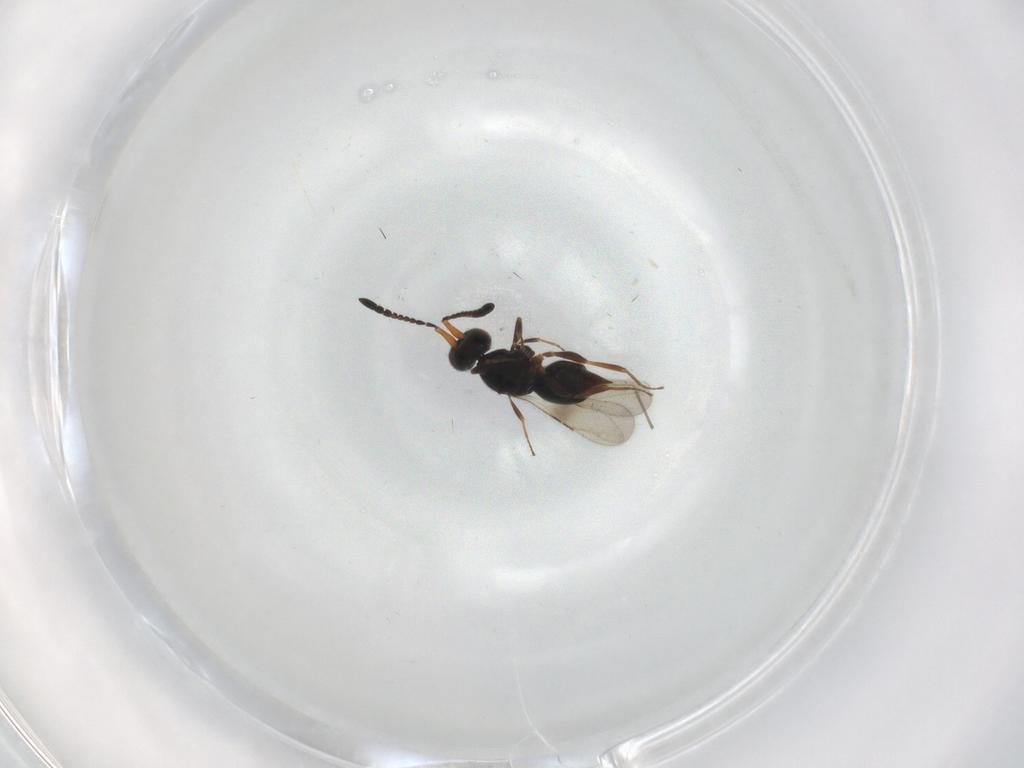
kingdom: Animalia
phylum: Arthropoda
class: Insecta
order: Hymenoptera
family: Ceraphronidae
